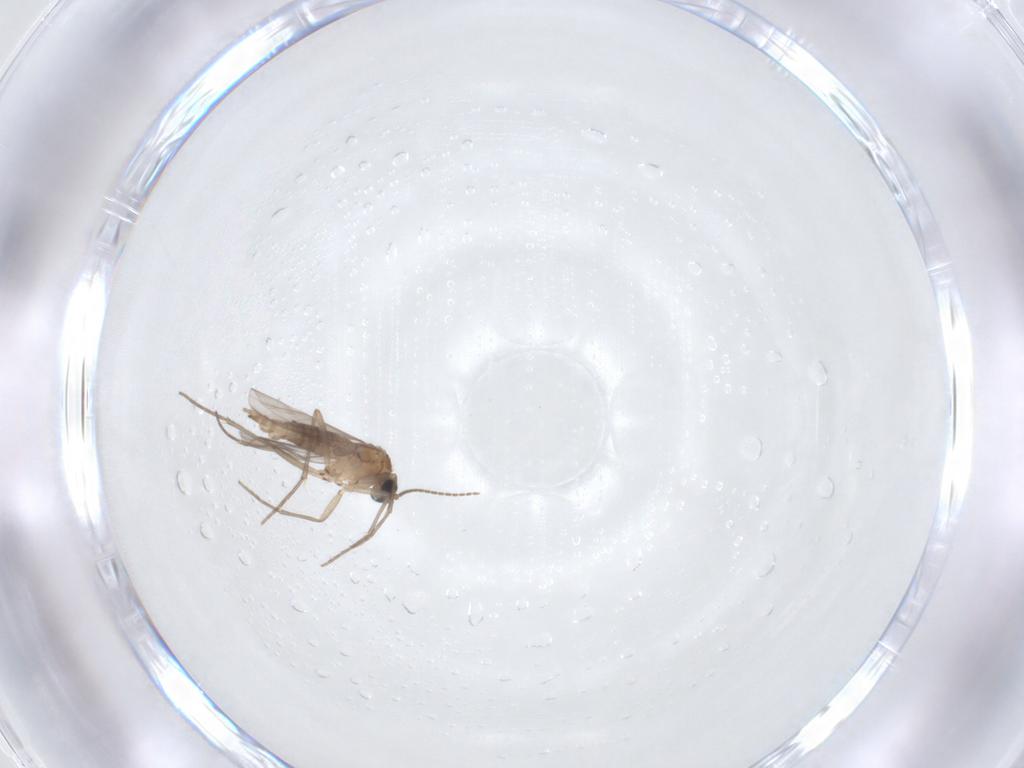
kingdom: Animalia
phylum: Arthropoda
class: Insecta
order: Diptera
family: Sciaridae
